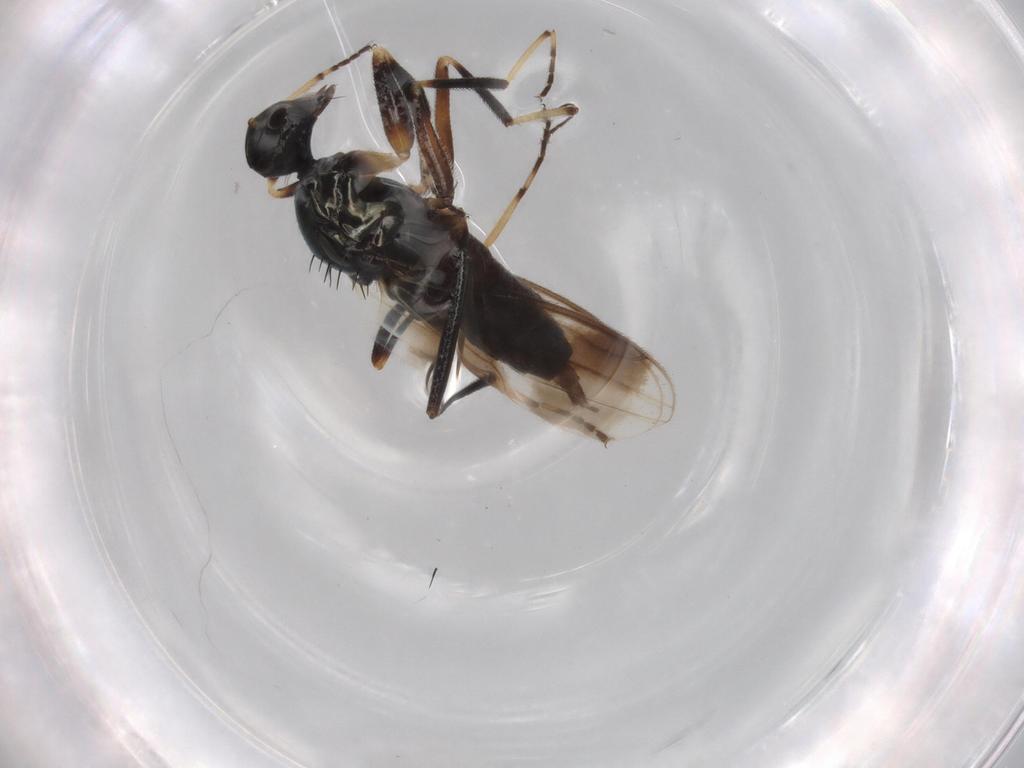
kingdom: Animalia
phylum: Arthropoda
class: Insecta
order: Diptera
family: Hybotidae
